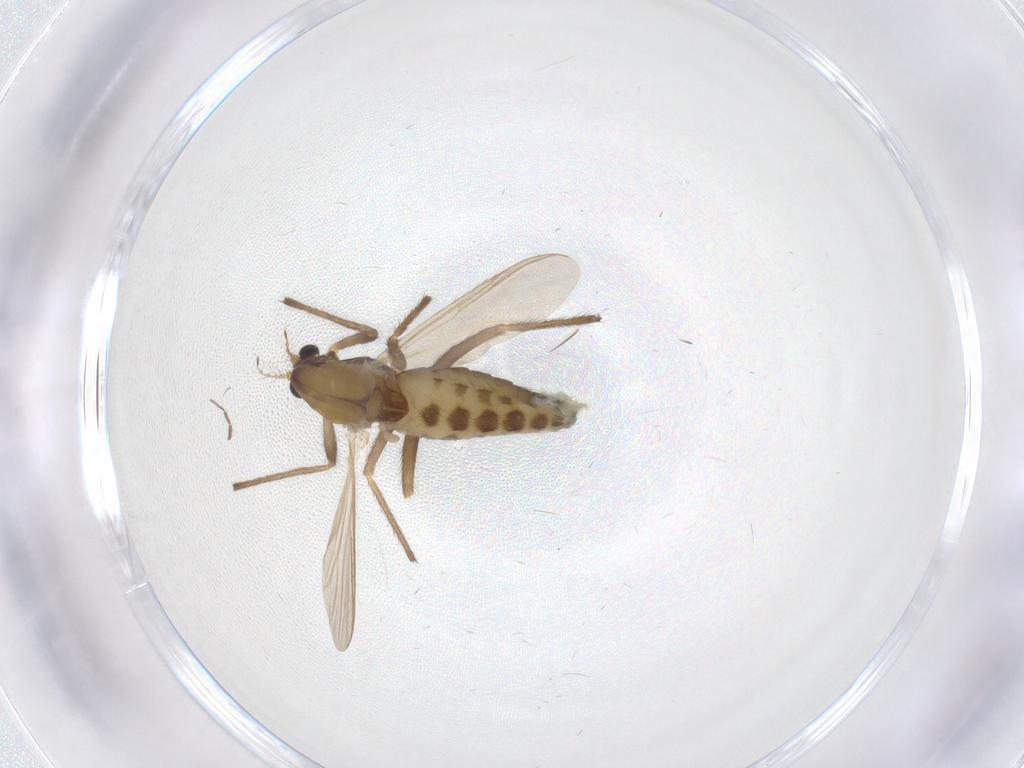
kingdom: Animalia
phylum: Arthropoda
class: Insecta
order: Diptera
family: Chironomidae
